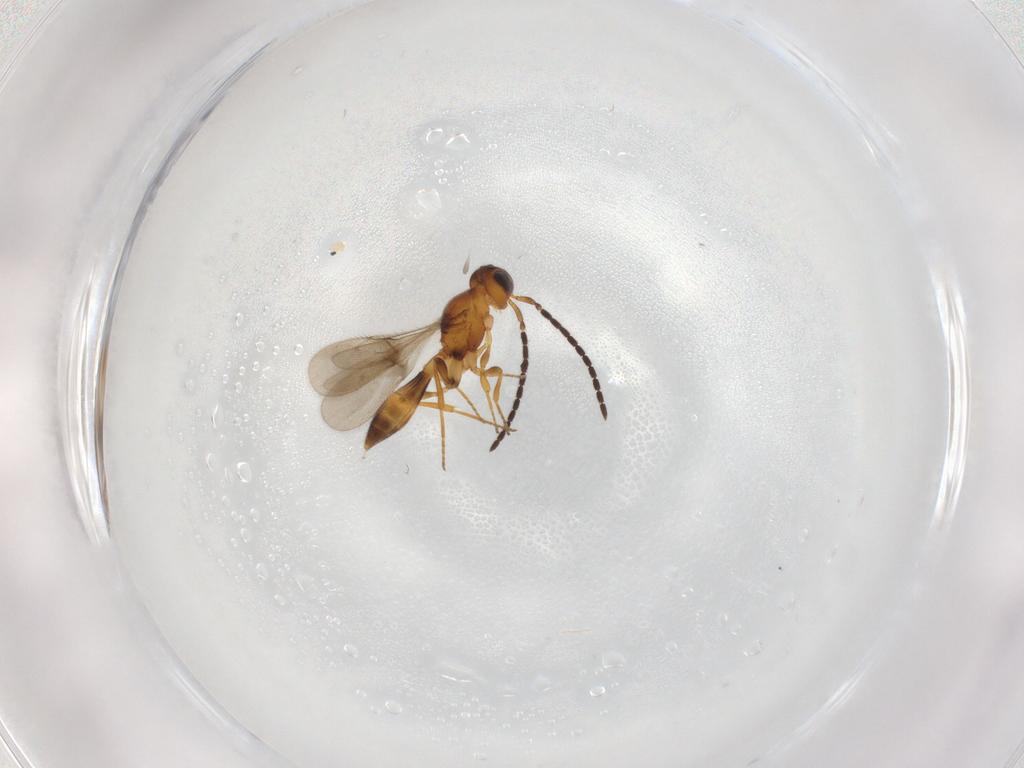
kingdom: Animalia
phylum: Arthropoda
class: Insecta
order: Hymenoptera
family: Scelionidae
